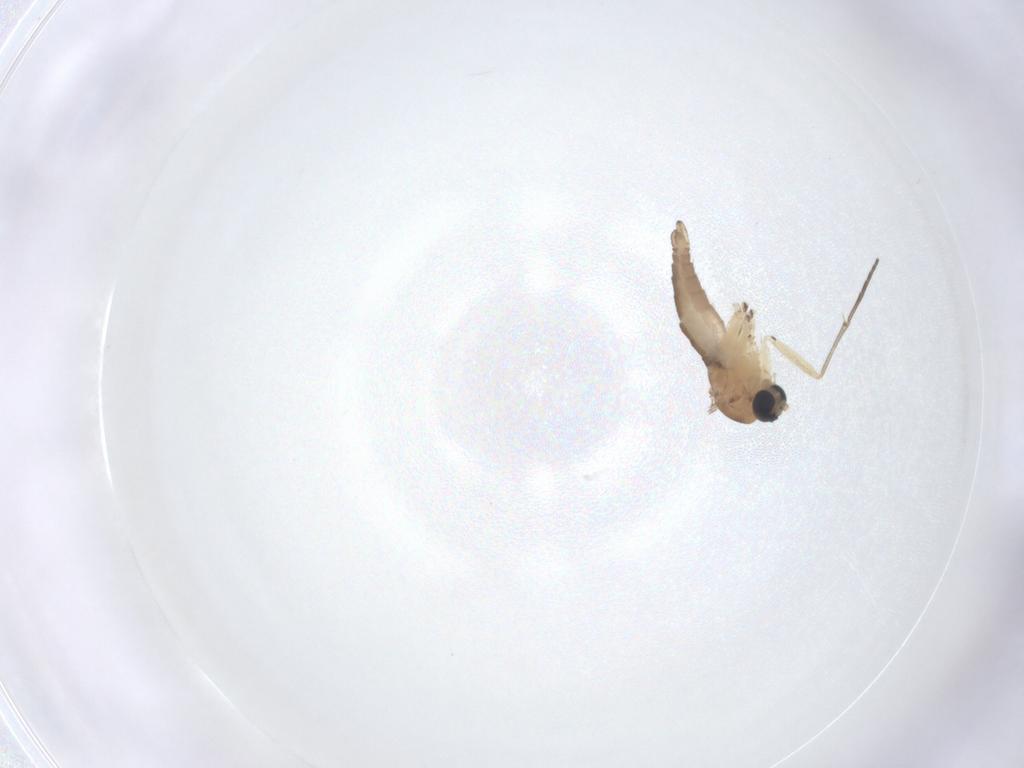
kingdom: Animalia
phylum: Arthropoda
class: Insecta
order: Diptera
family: Sciaridae
